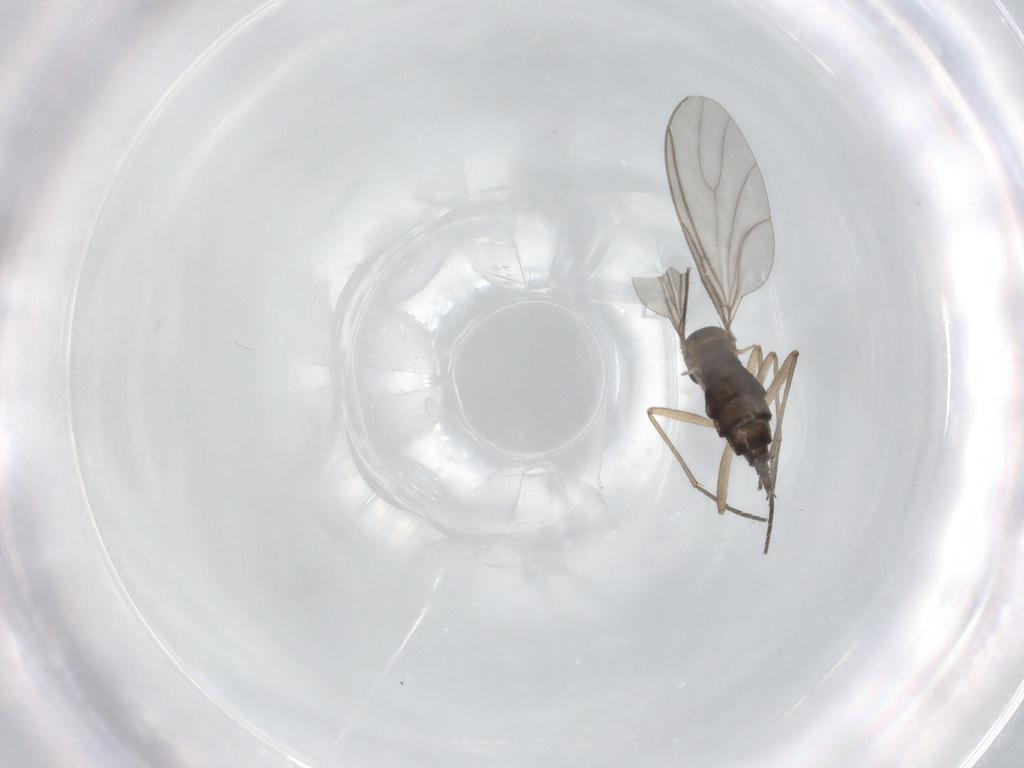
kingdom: Animalia
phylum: Arthropoda
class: Insecta
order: Diptera
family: Sciaridae
